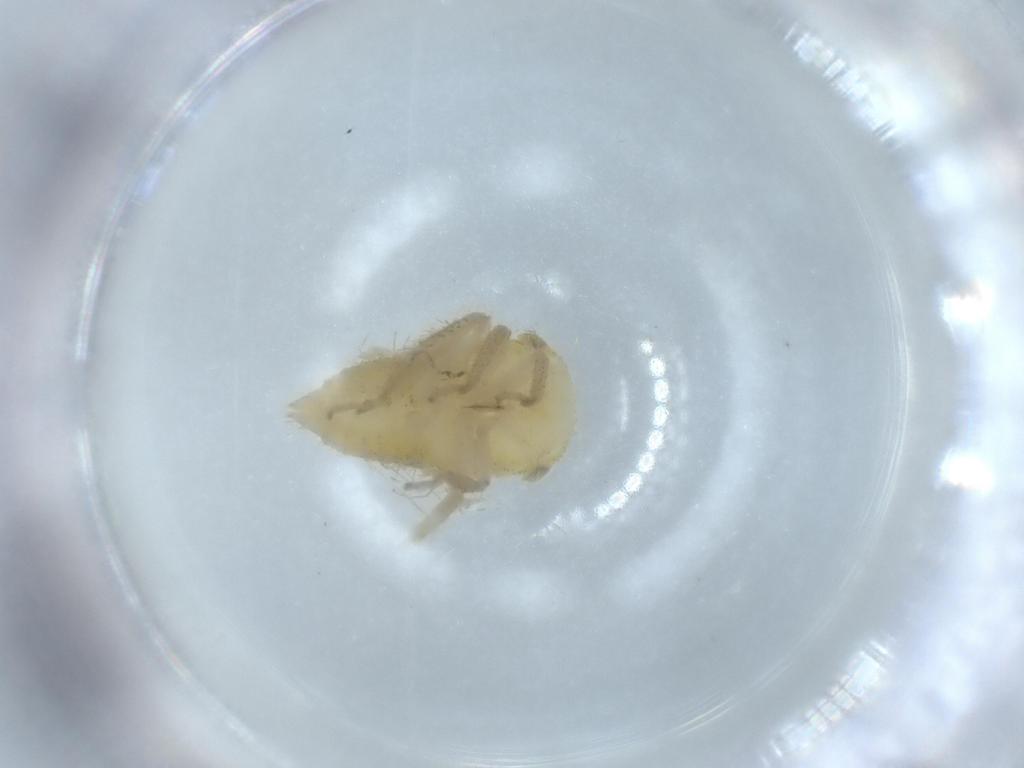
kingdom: Animalia
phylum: Arthropoda
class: Insecta
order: Hemiptera
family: Cicadellidae
